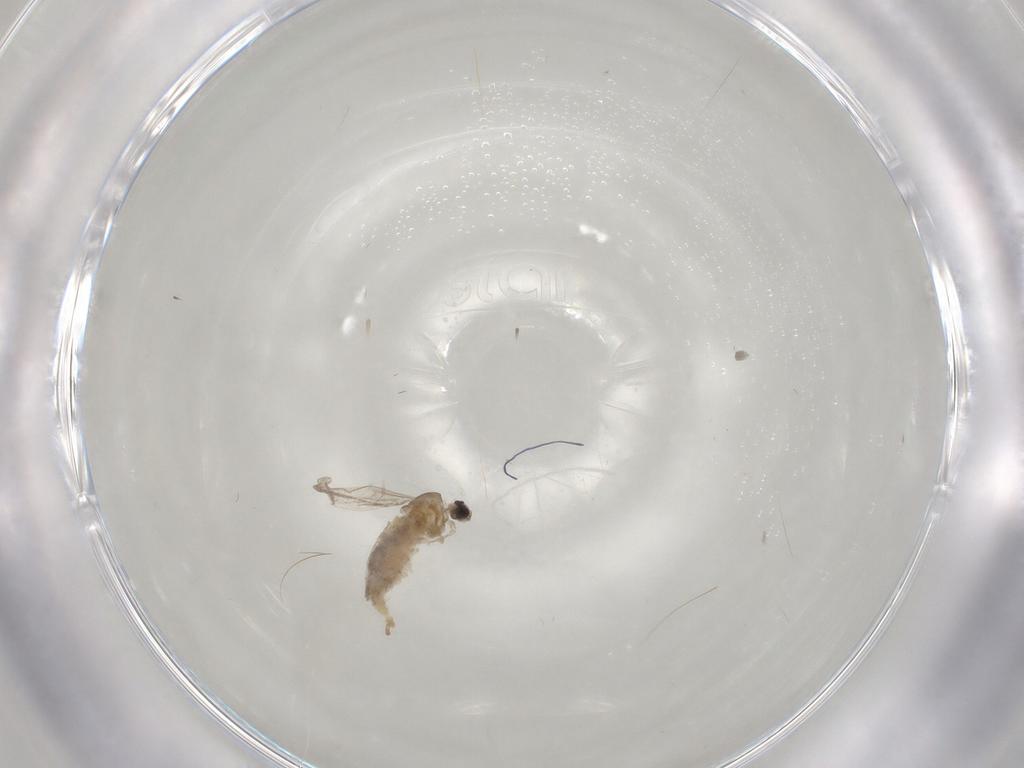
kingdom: Animalia
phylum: Arthropoda
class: Insecta
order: Diptera
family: Cecidomyiidae
